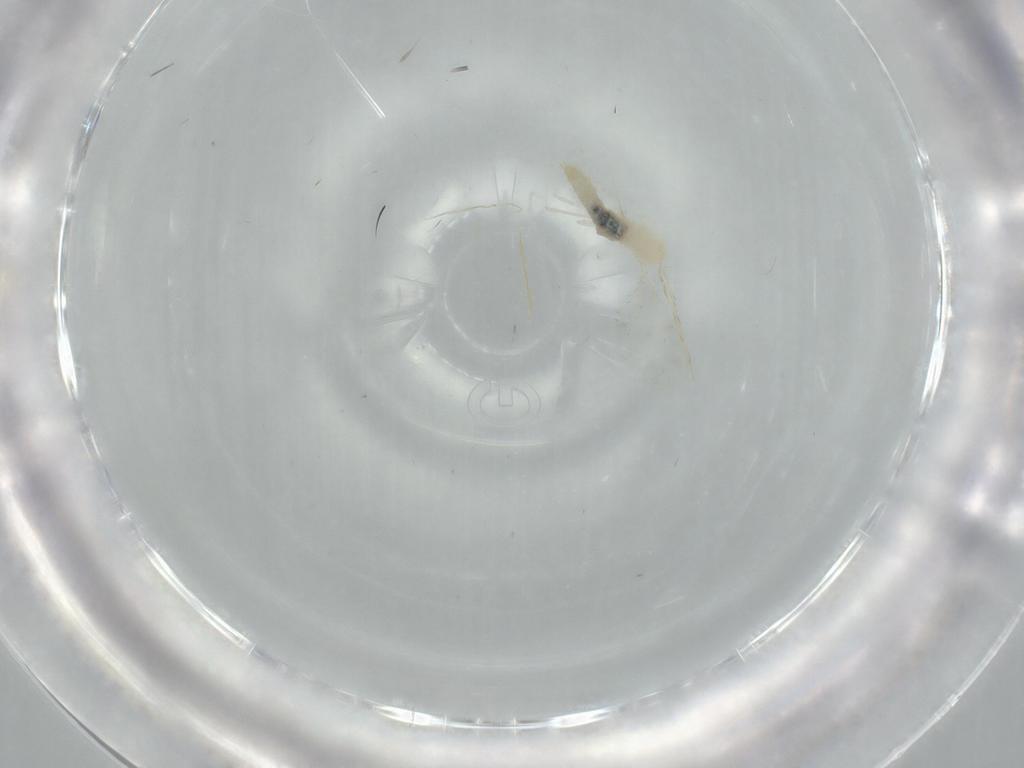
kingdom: Animalia
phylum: Arthropoda
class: Insecta
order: Diptera
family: Cecidomyiidae
